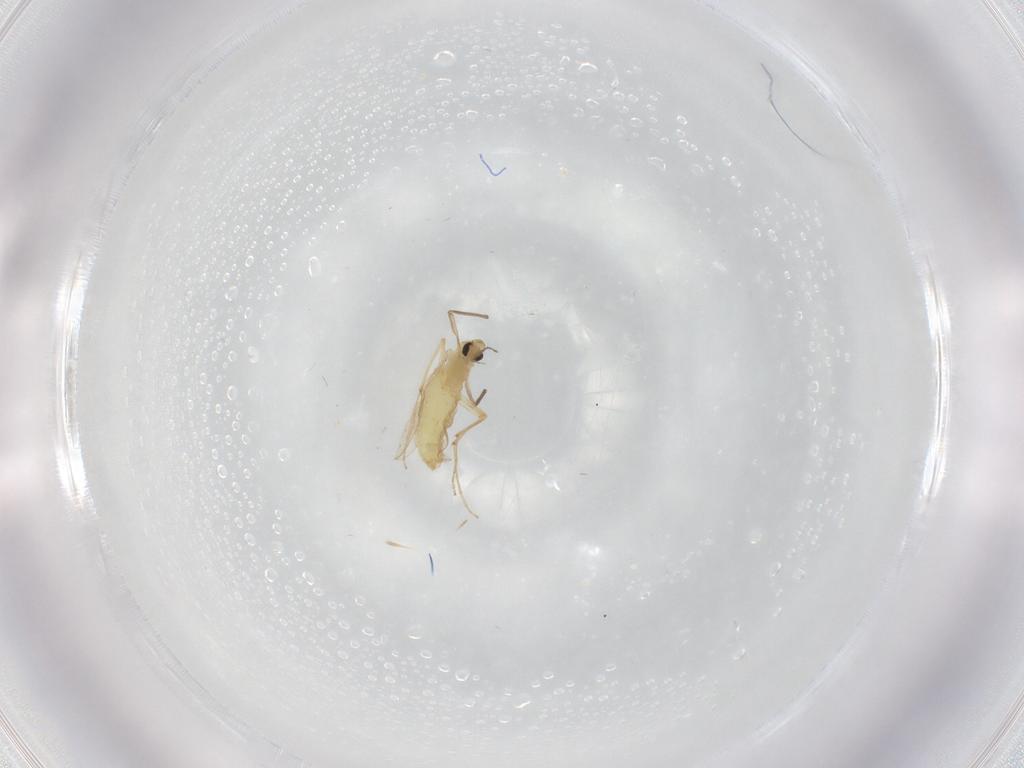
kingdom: Animalia
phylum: Arthropoda
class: Insecta
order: Diptera
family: Chironomidae
